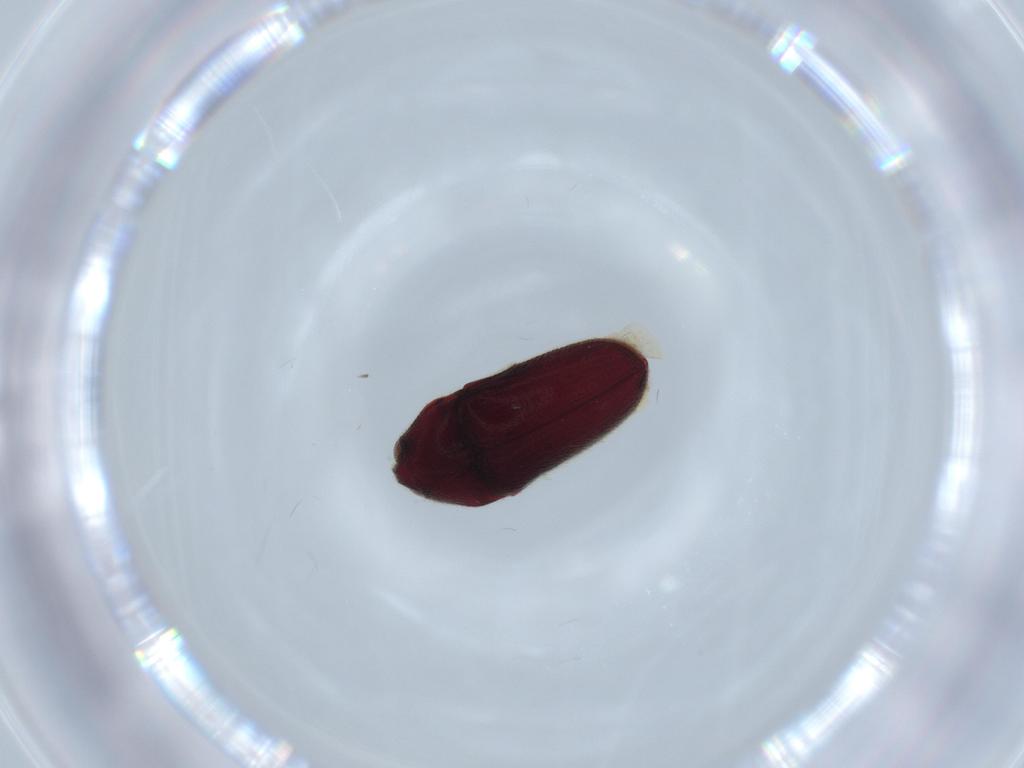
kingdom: Animalia
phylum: Arthropoda
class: Insecta
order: Coleoptera
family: Throscidae
